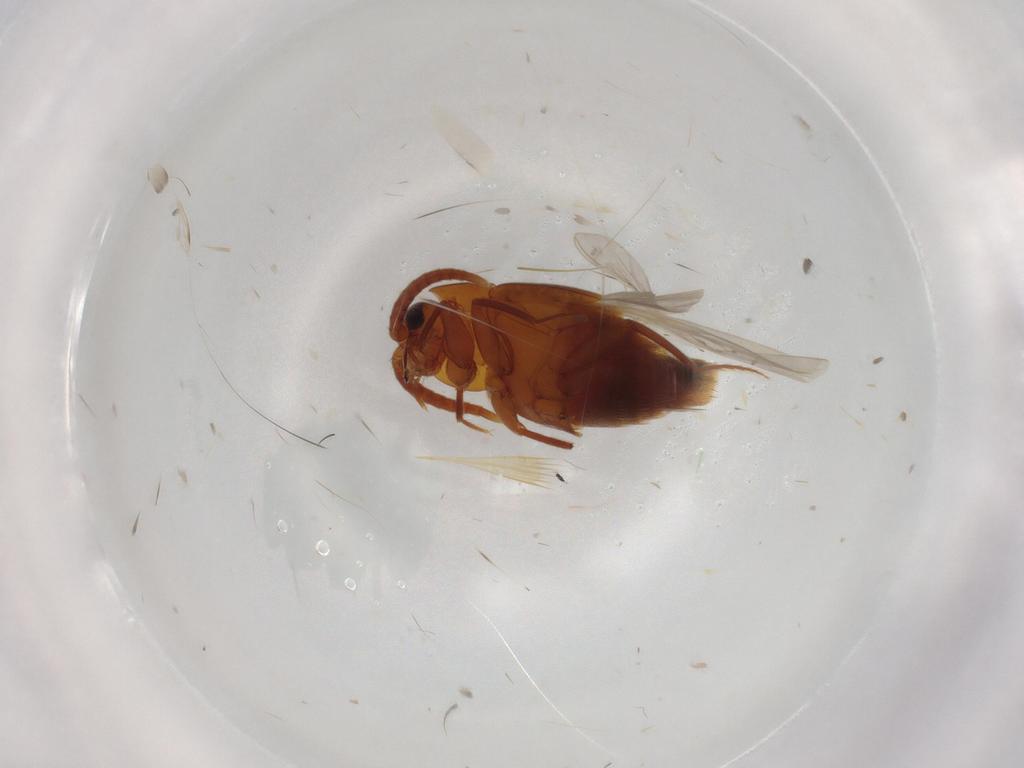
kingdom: Animalia
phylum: Arthropoda
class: Insecta
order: Coleoptera
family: Staphylinidae
